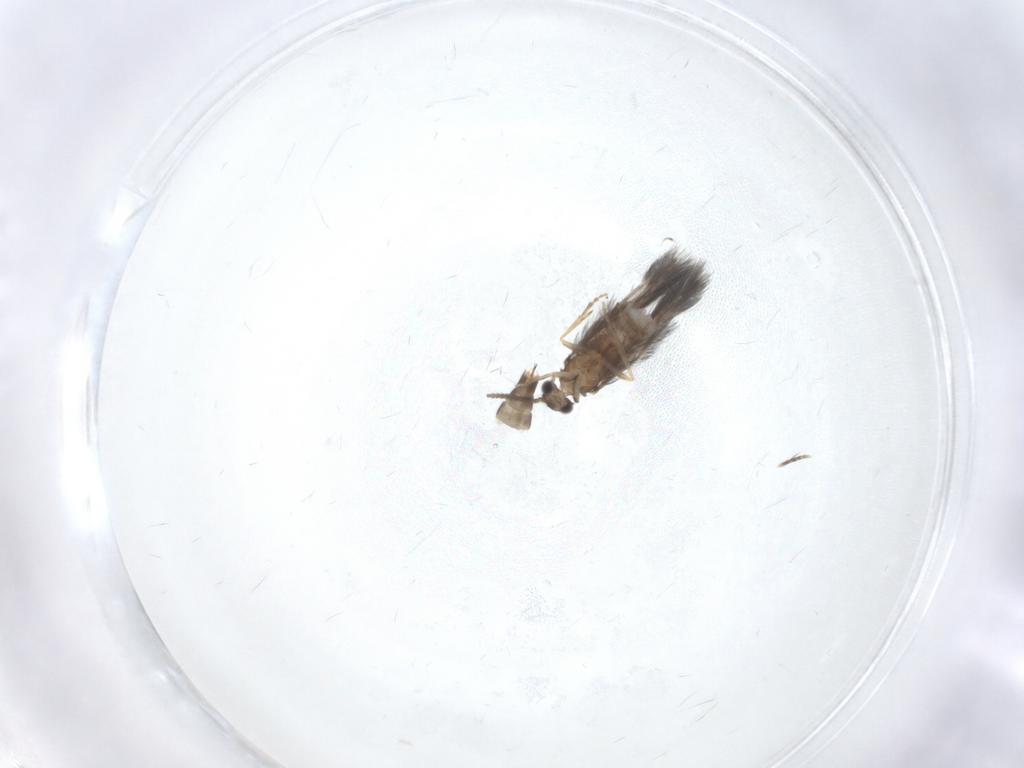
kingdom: Animalia
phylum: Arthropoda
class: Insecta
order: Trichoptera
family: Hydroptilidae
